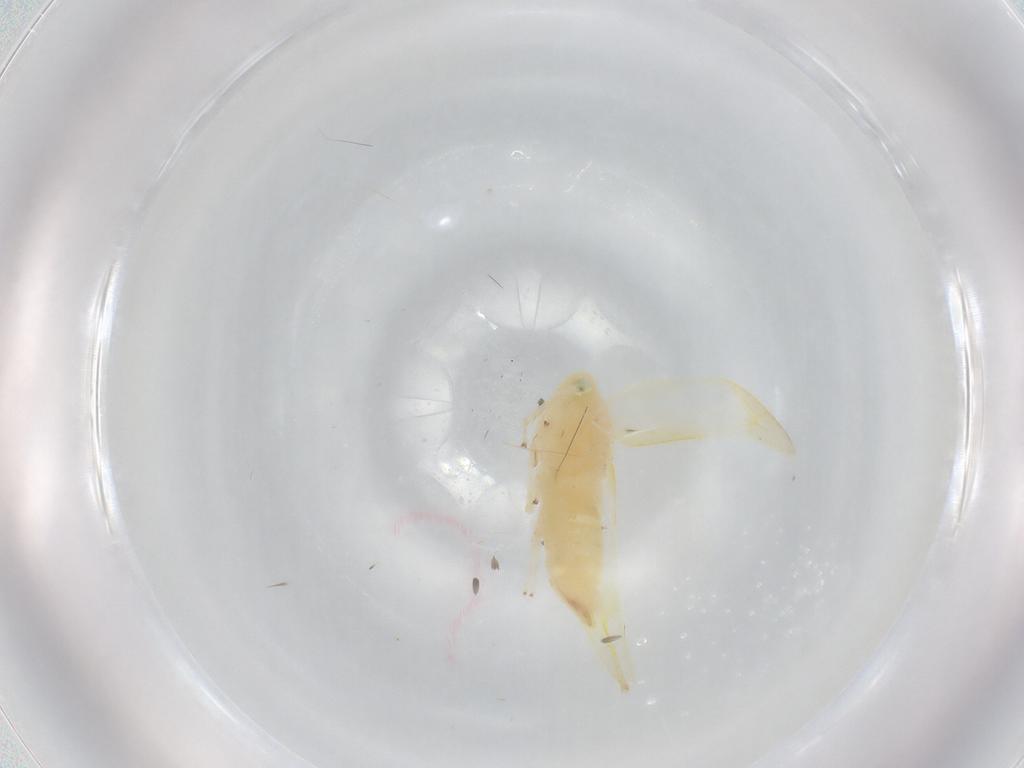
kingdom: Animalia
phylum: Arthropoda
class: Insecta
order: Hemiptera
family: Cicadellidae
